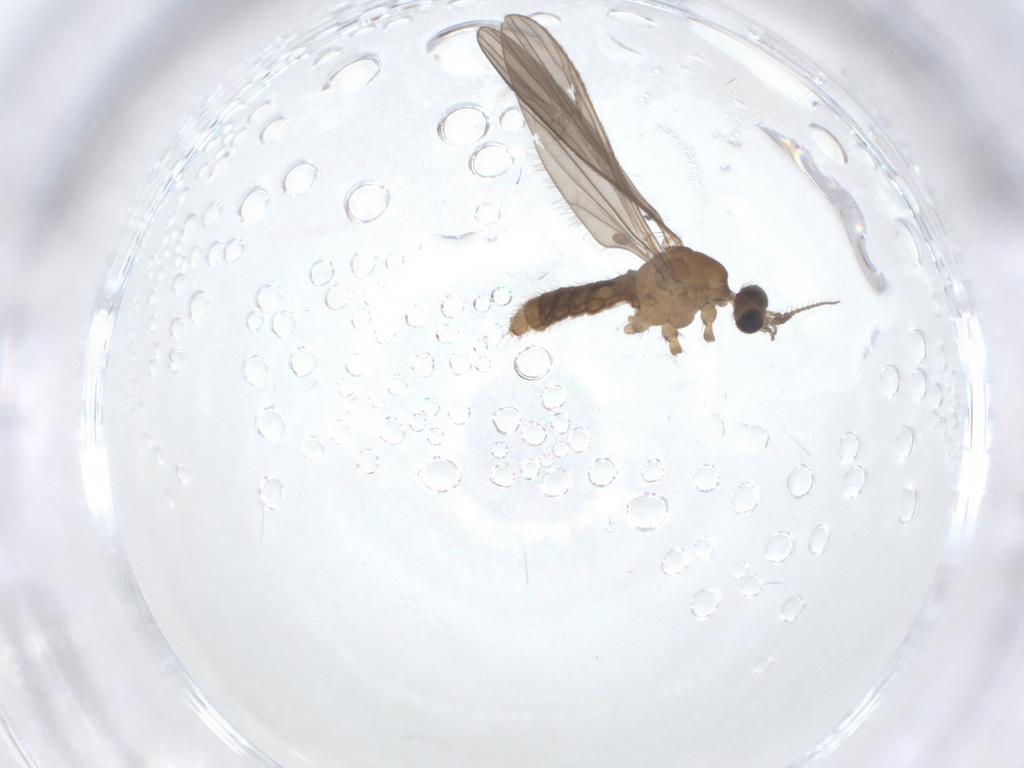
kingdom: Animalia
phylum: Arthropoda
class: Insecta
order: Diptera
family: Limoniidae
